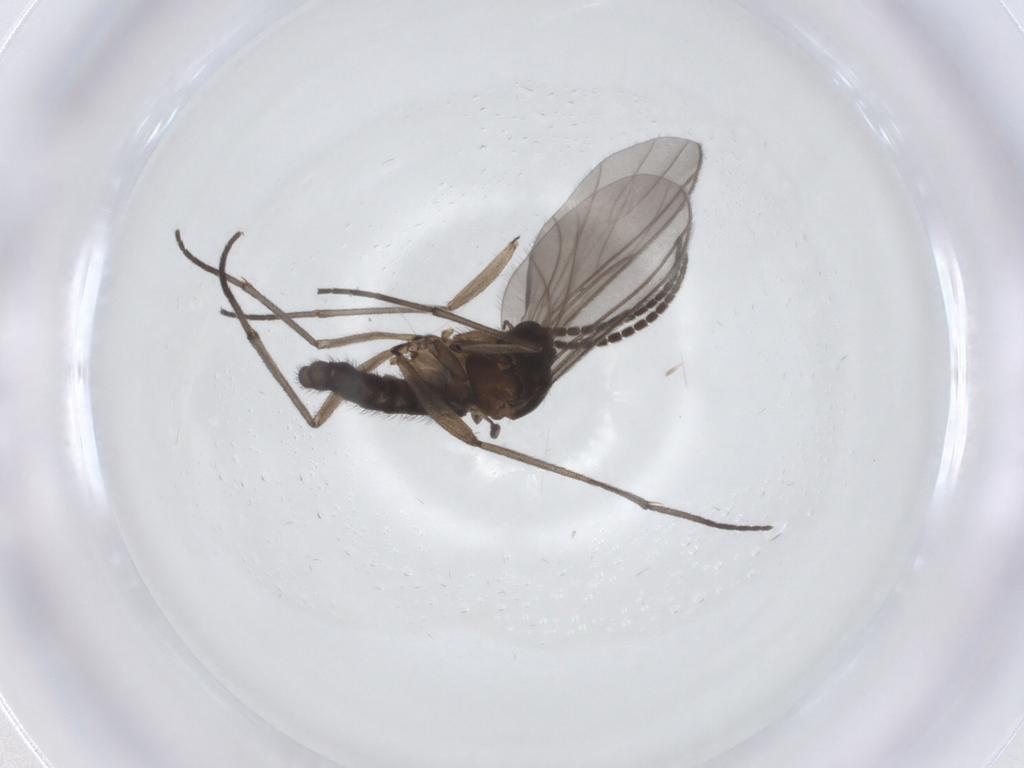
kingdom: Animalia
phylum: Arthropoda
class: Insecta
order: Diptera
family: Sciaridae
